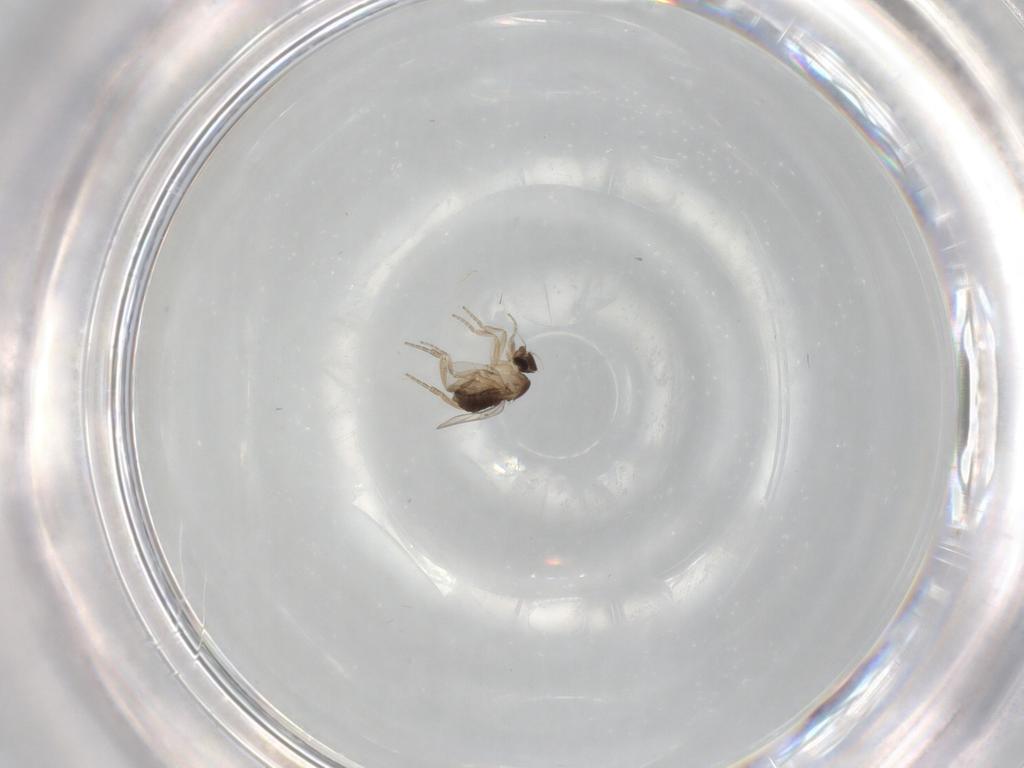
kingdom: Animalia
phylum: Arthropoda
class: Insecta
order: Diptera
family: Phoridae
